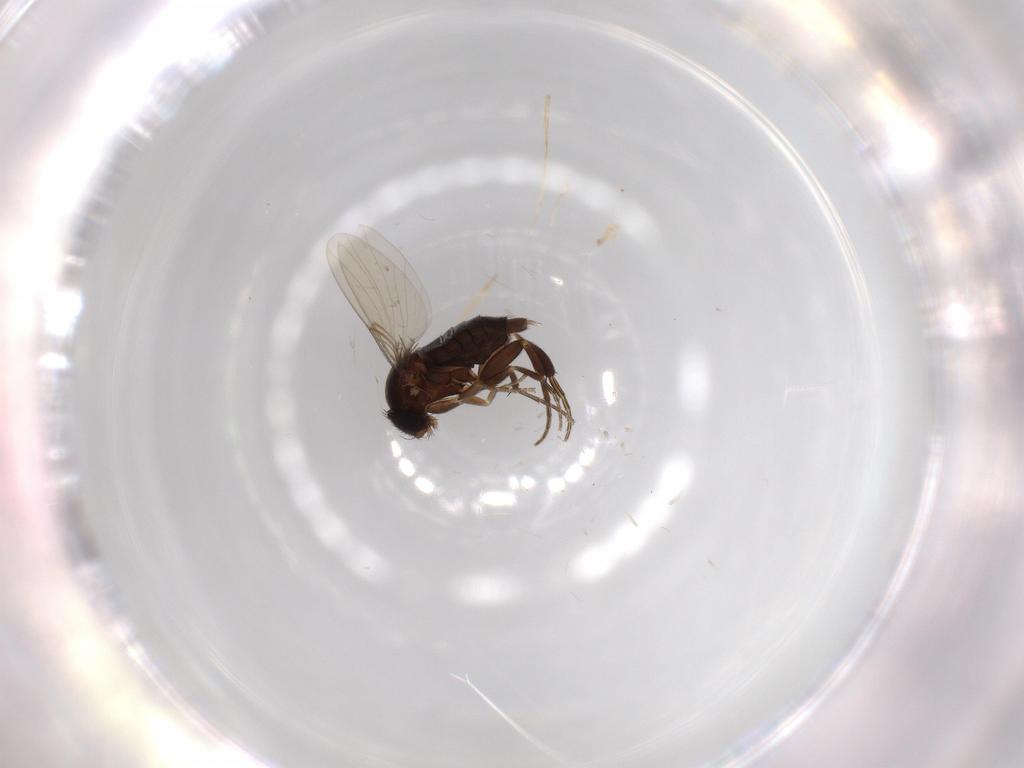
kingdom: Animalia
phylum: Arthropoda
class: Insecta
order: Diptera
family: Phoridae
